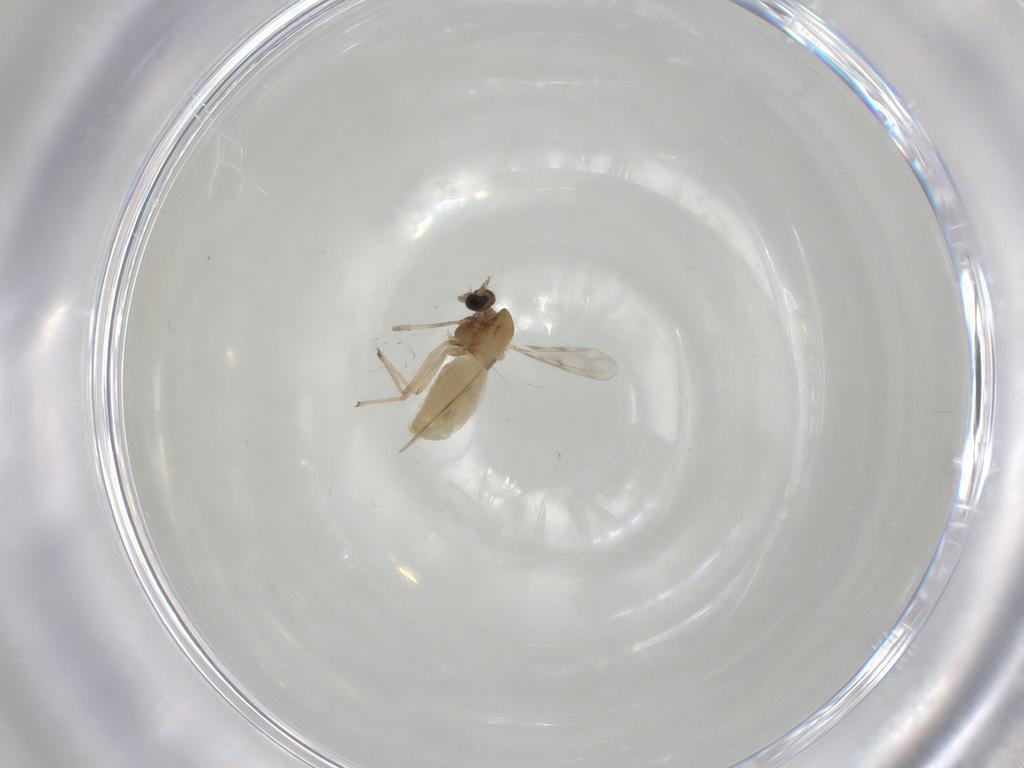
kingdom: Animalia
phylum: Arthropoda
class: Insecta
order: Diptera
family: Chironomidae
